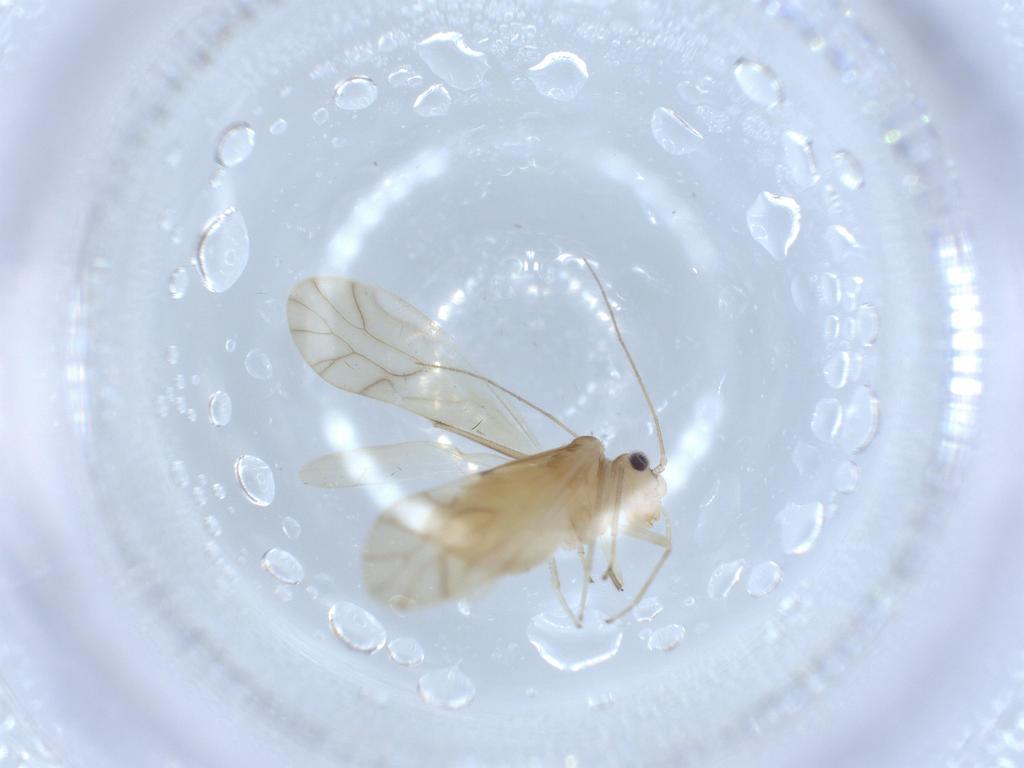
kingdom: Animalia
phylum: Arthropoda
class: Insecta
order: Psocodea
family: Caeciliusidae
